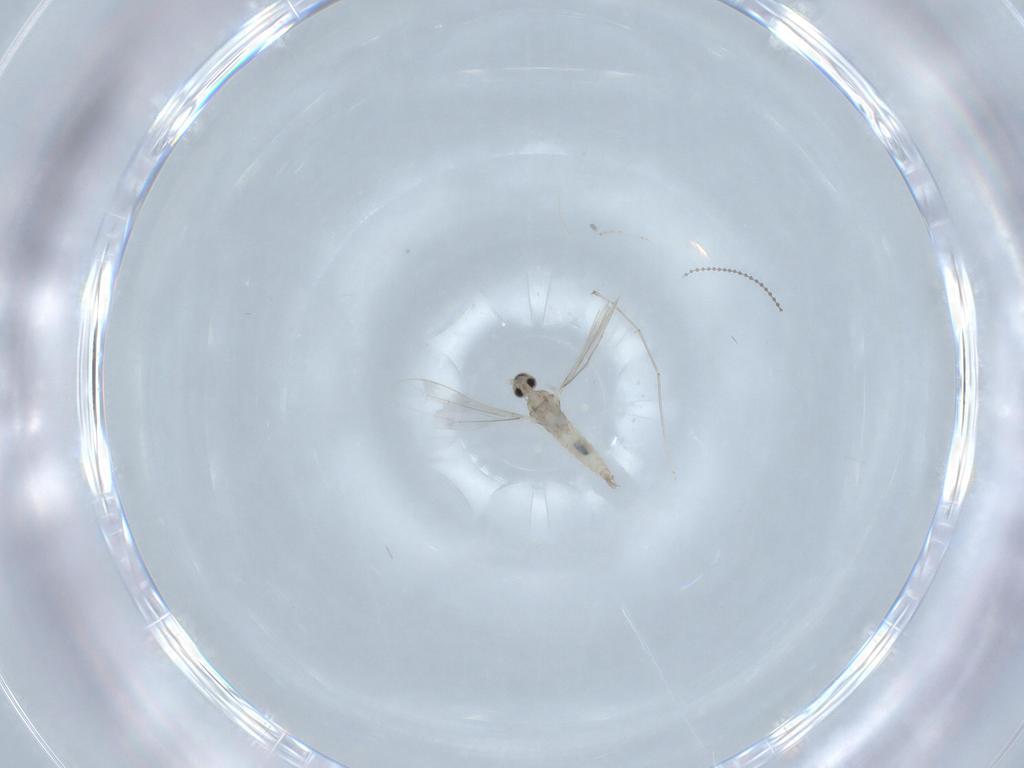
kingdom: Animalia
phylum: Arthropoda
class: Insecta
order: Diptera
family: Cecidomyiidae
